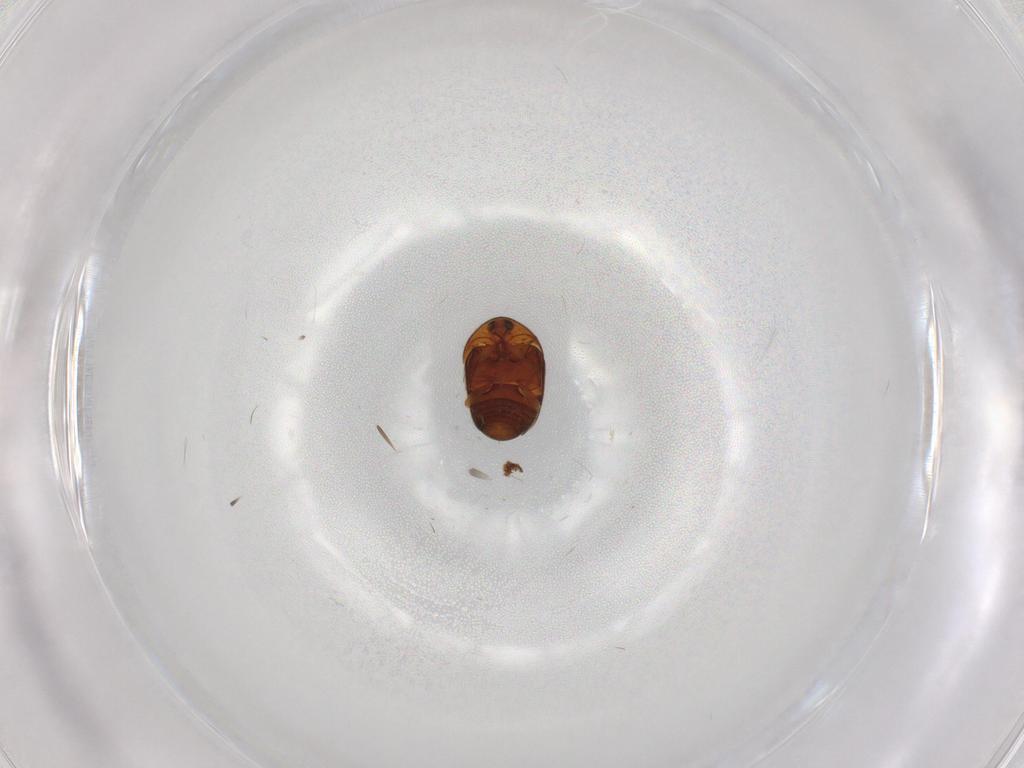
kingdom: Animalia
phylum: Arthropoda
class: Insecta
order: Coleoptera
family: Corylophidae
